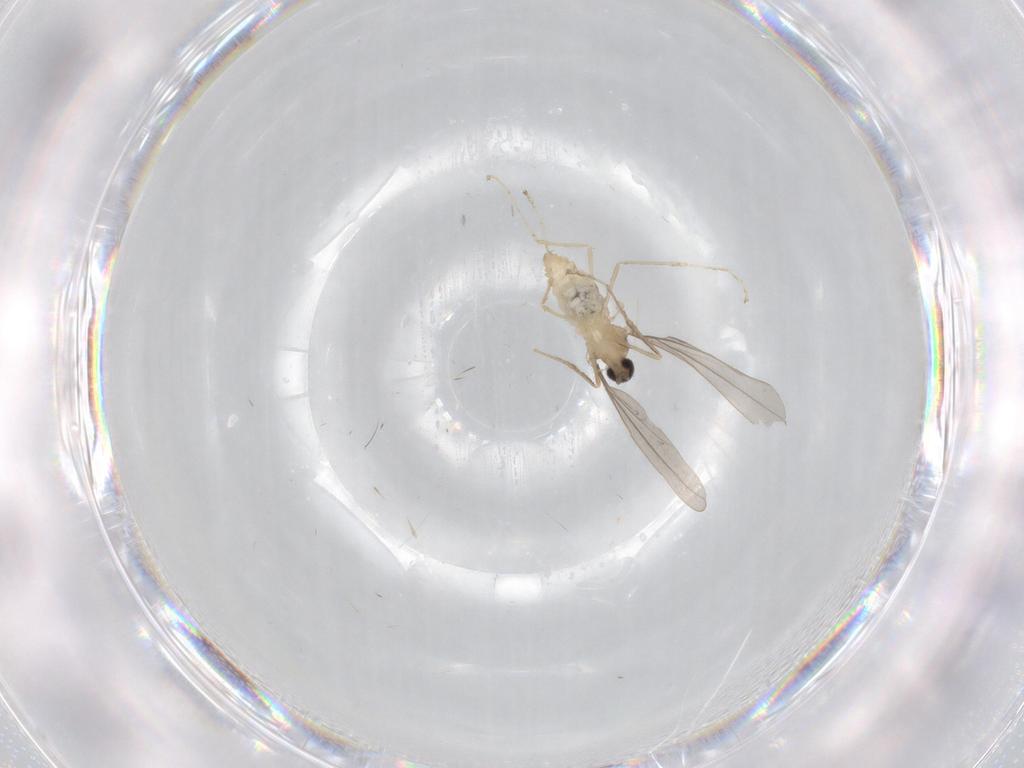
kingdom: Animalia
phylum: Arthropoda
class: Insecta
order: Diptera
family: Cecidomyiidae
